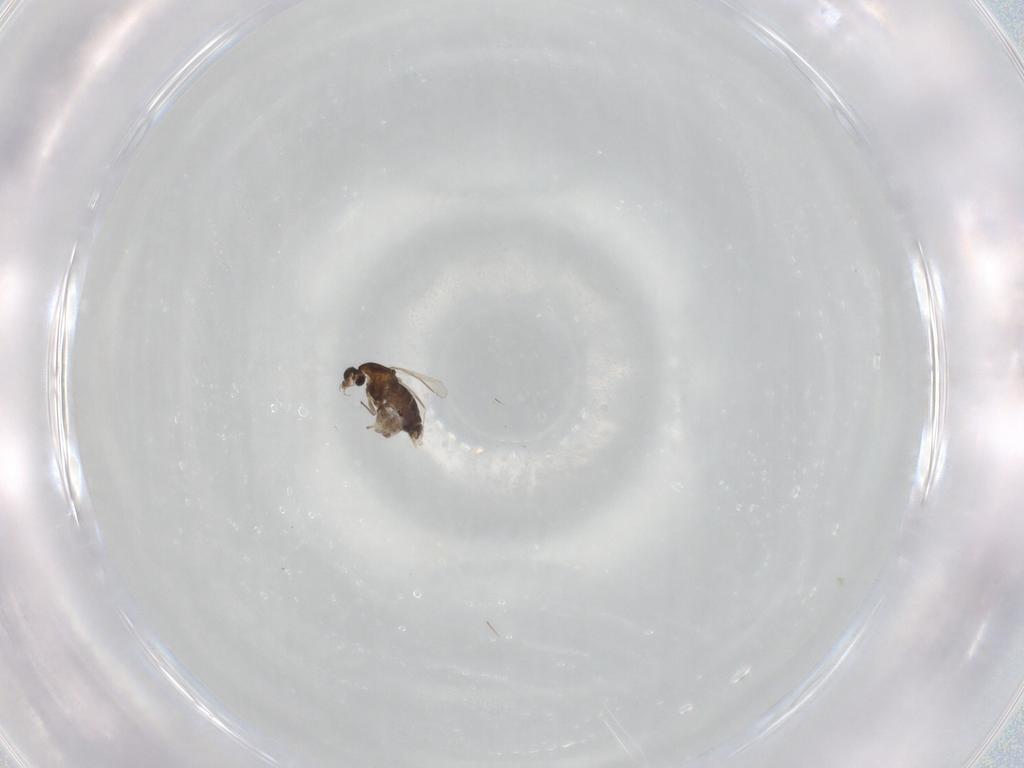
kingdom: Animalia
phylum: Arthropoda
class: Insecta
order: Diptera
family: Chironomidae
